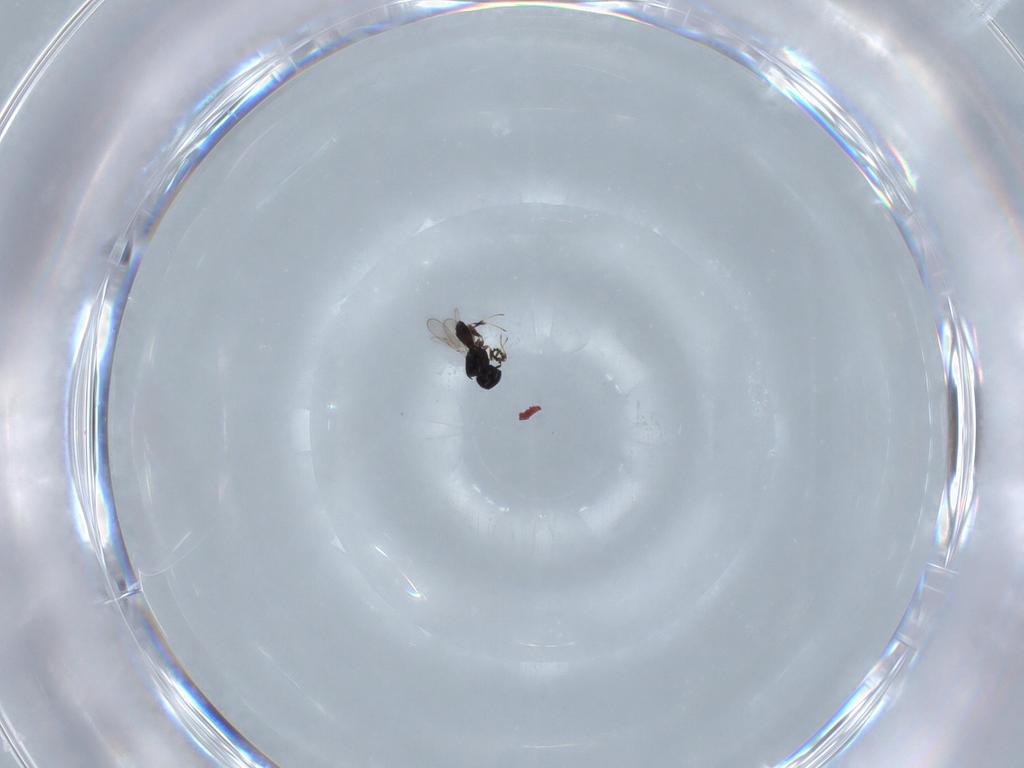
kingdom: Animalia
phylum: Arthropoda
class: Insecta
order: Hymenoptera
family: Scelionidae
